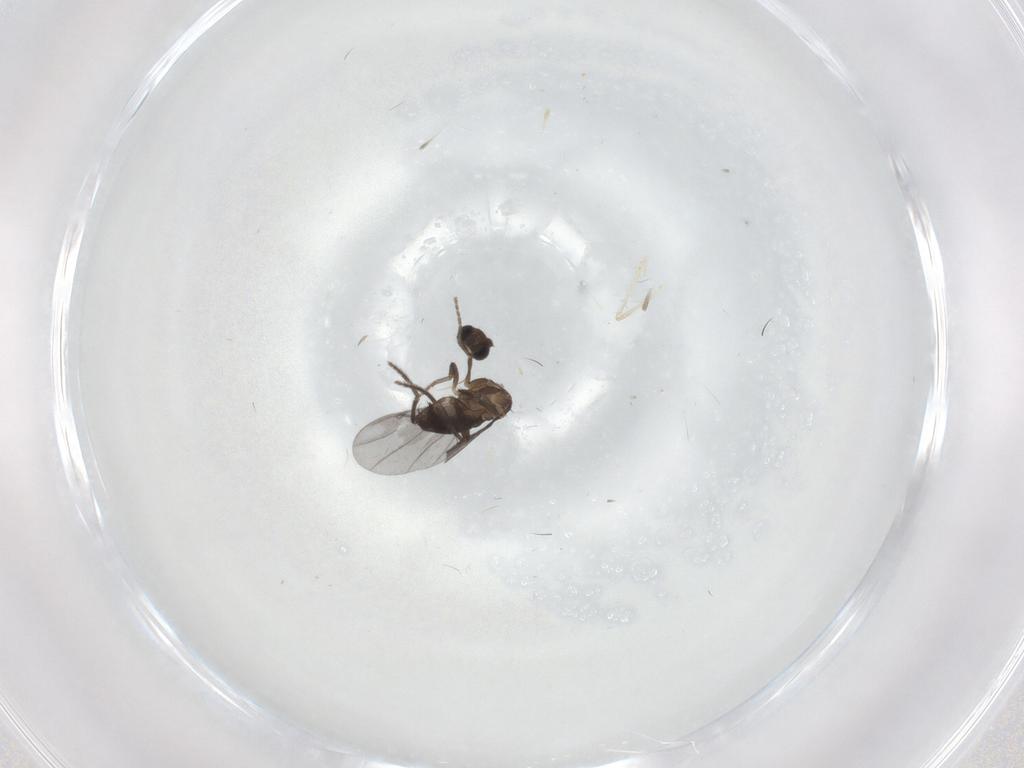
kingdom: Animalia
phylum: Arthropoda
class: Insecta
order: Diptera
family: Phoridae
